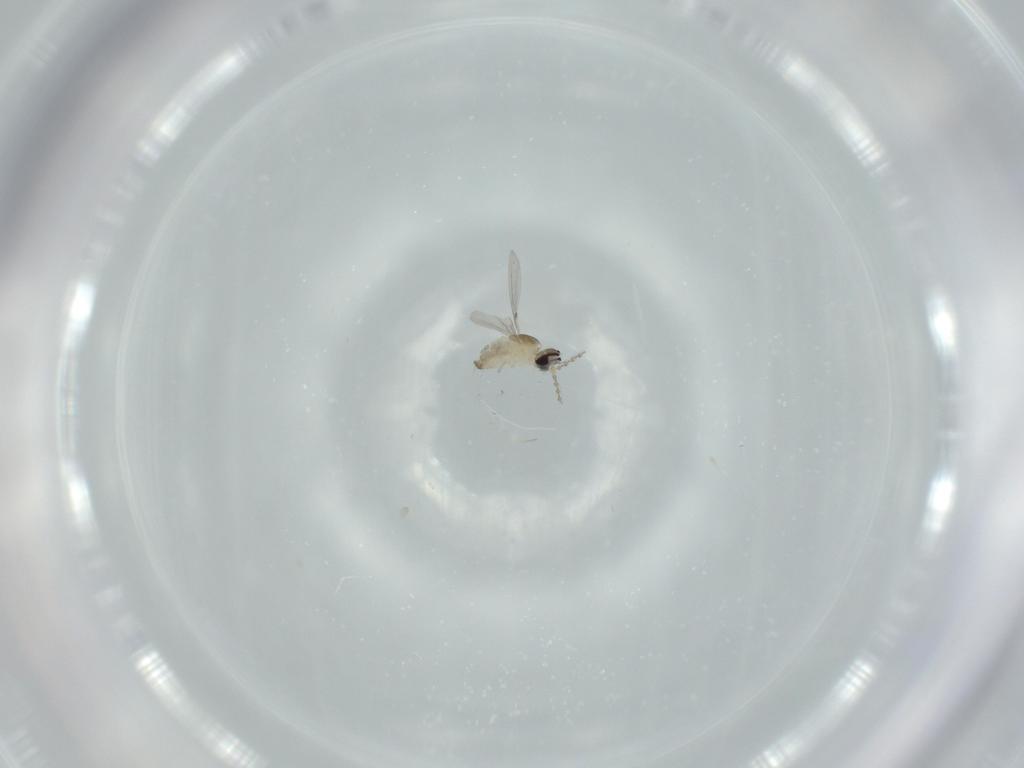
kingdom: Animalia
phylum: Arthropoda
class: Insecta
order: Diptera
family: Cecidomyiidae
